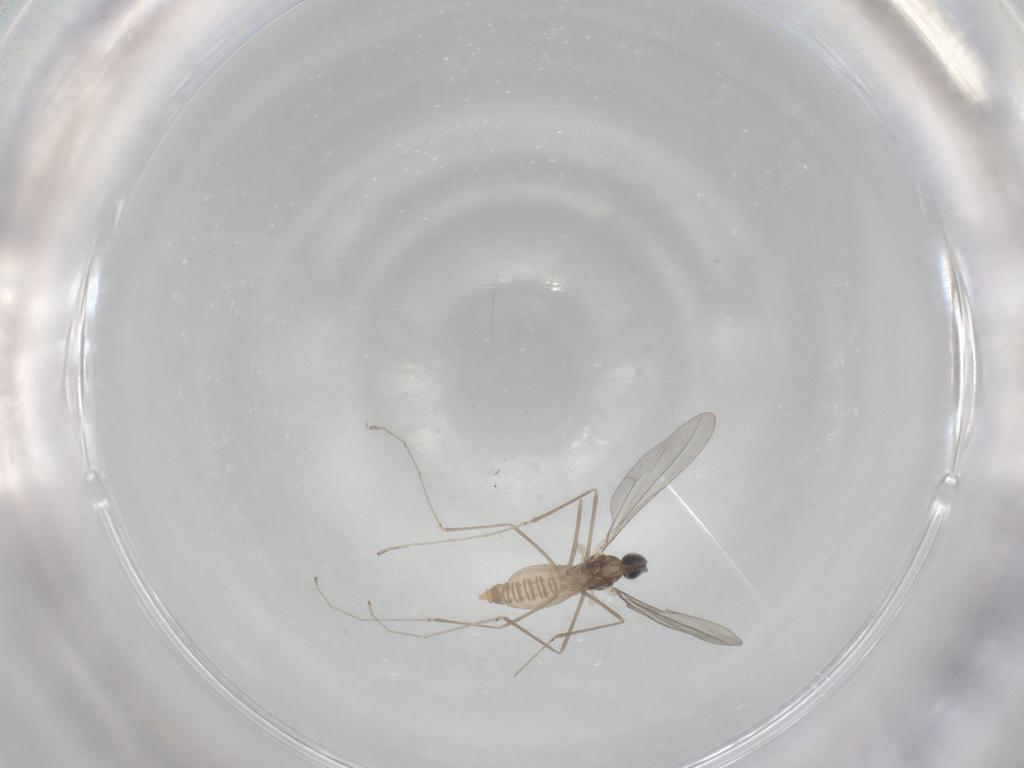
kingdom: Animalia
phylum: Arthropoda
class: Insecta
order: Diptera
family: Cecidomyiidae
